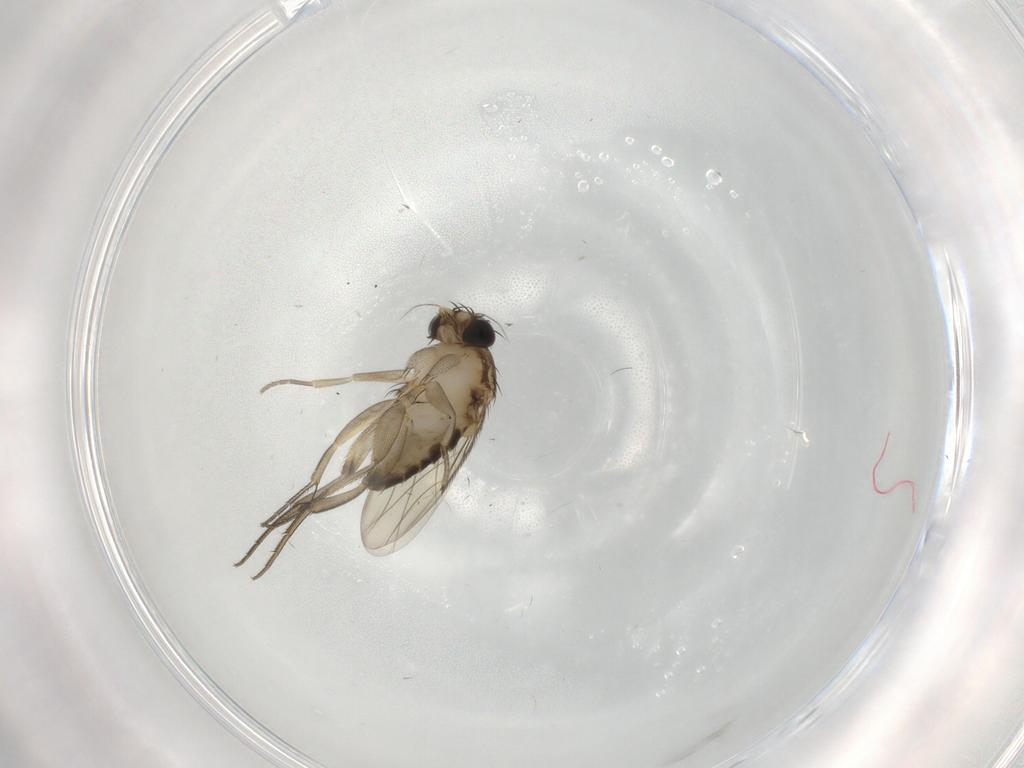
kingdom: Animalia
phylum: Arthropoda
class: Insecta
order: Diptera
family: Phoridae
